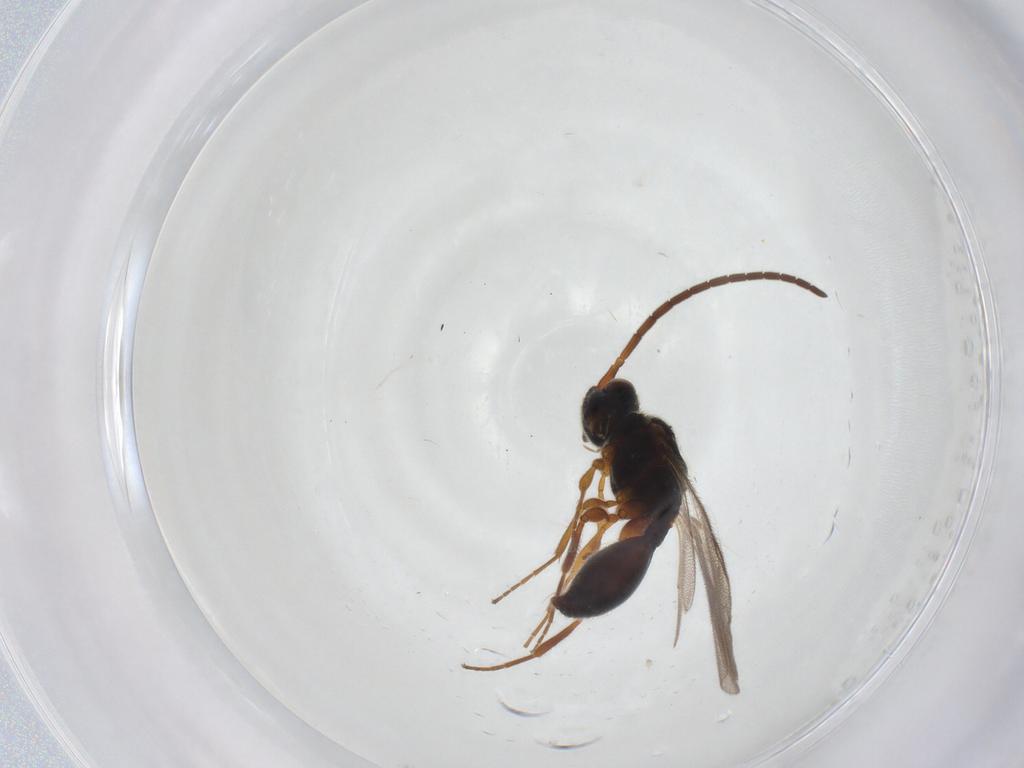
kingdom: Animalia
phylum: Arthropoda
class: Insecta
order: Hymenoptera
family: Diapriidae
